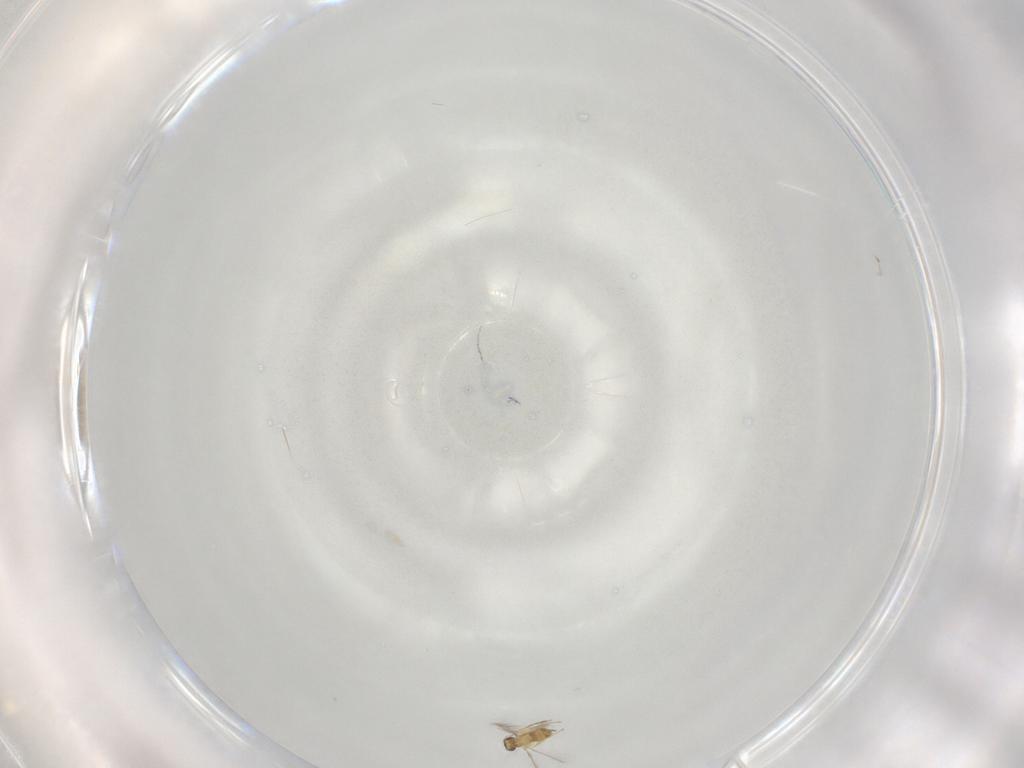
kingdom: Animalia
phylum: Arthropoda
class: Insecta
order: Hymenoptera
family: Mymaridae
